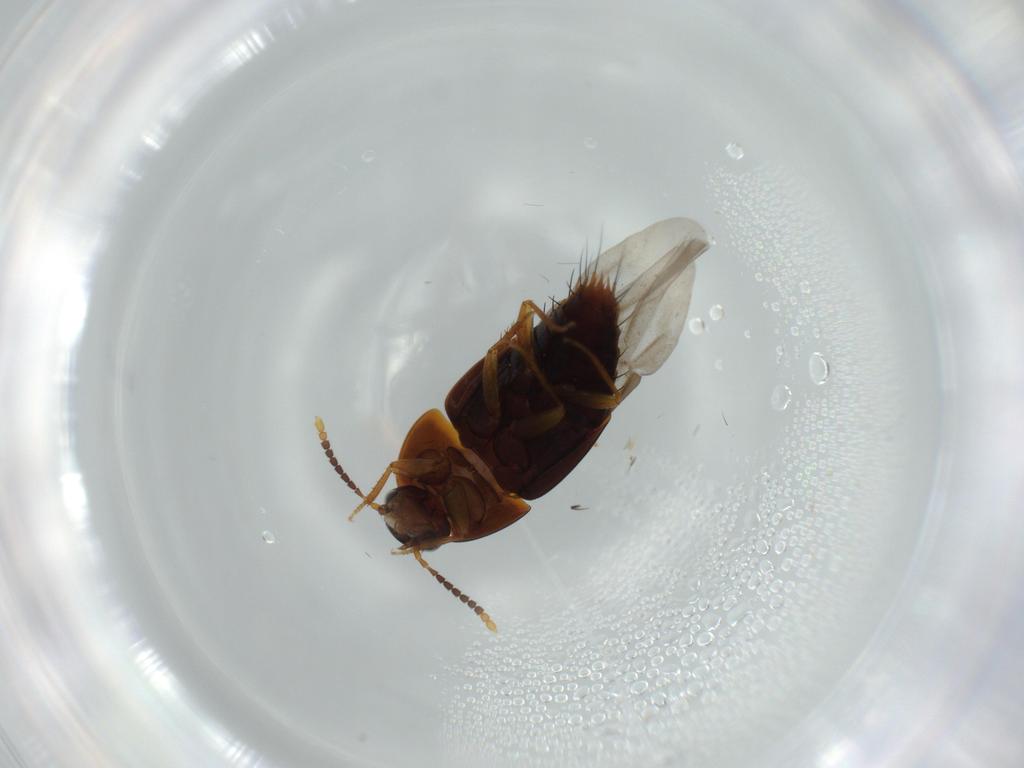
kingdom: Animalia
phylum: Arthropoda
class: Insecta
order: Coleoptera
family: Staphylinidae
